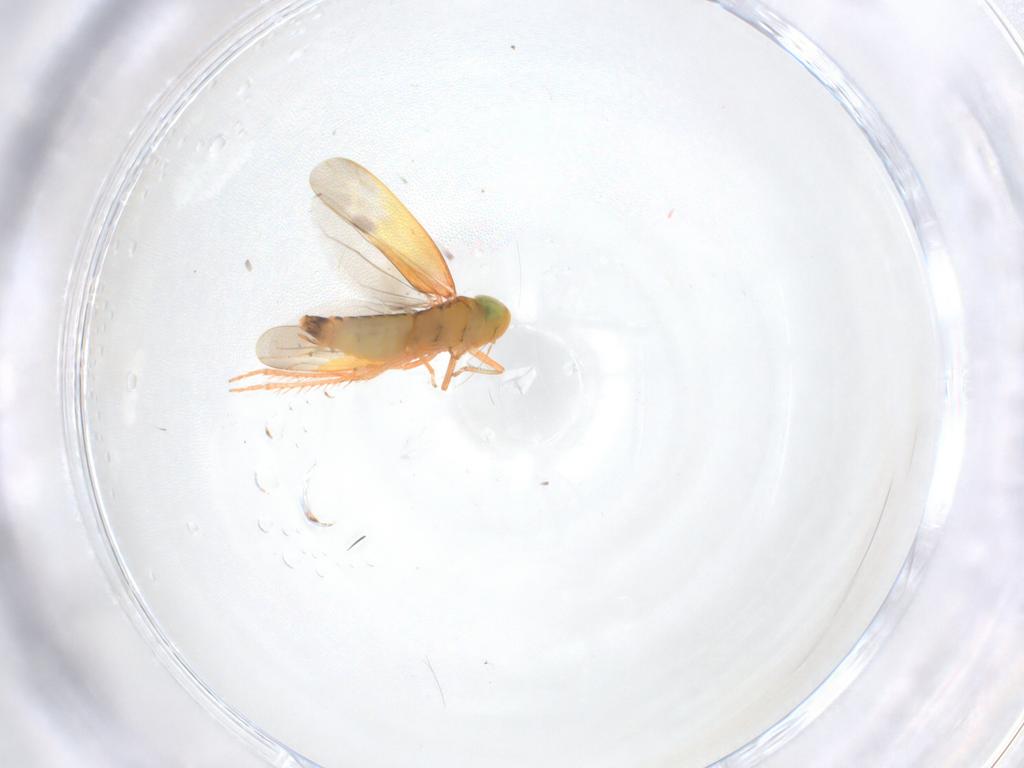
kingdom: Animalia
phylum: Arthropoda
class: Insecta
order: Hemiptera
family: Cicadellidae
